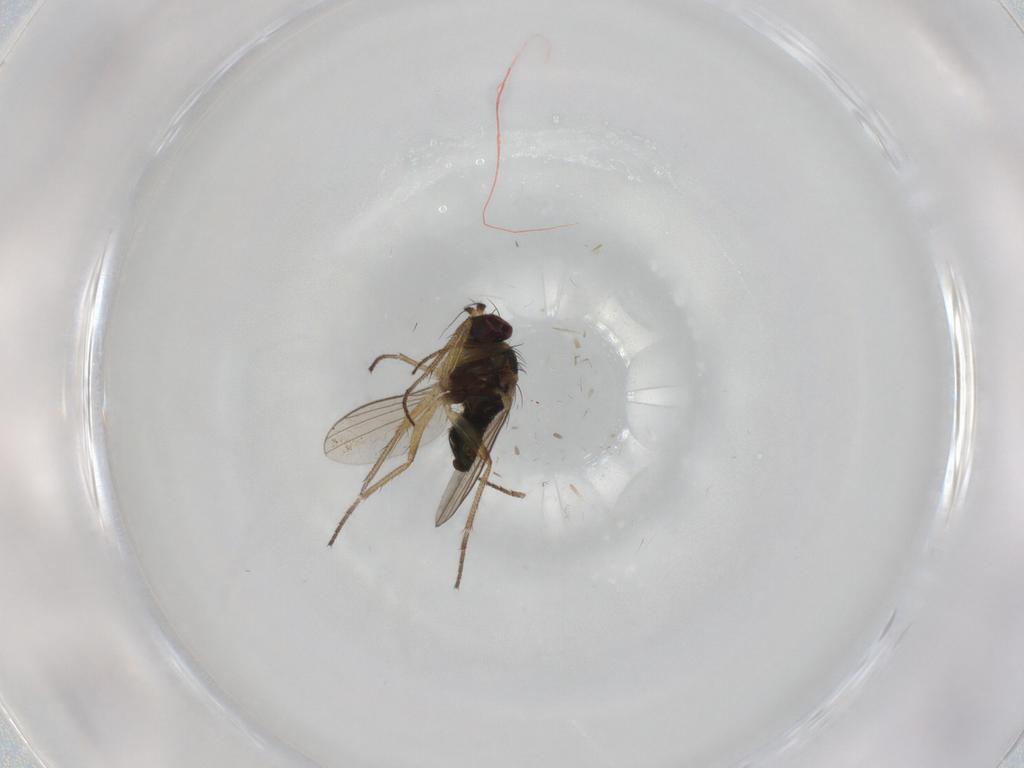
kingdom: Animalia
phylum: Arthropoda
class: Insecta
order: Diptera
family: Dolichopodidae
